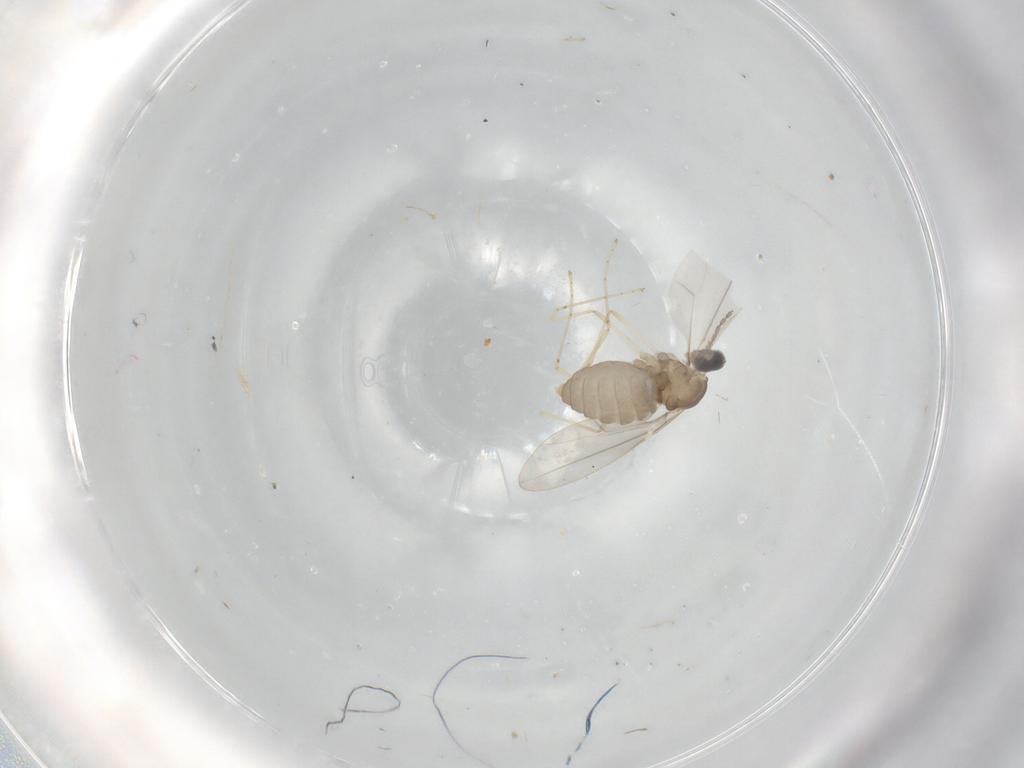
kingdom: Animalia
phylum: Arthropoda
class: Insecta
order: Diptera
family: Cecidomyiidae
